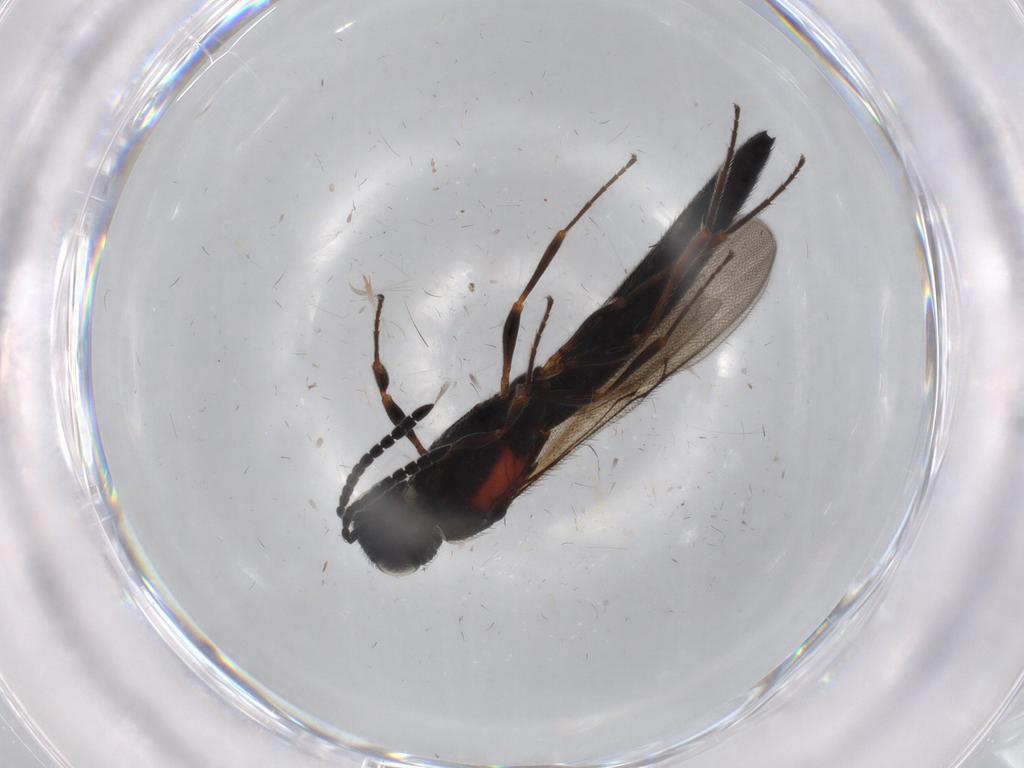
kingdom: Animalia
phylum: Arthropoda
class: Insecta
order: Hymenoptera
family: Scelionidae
